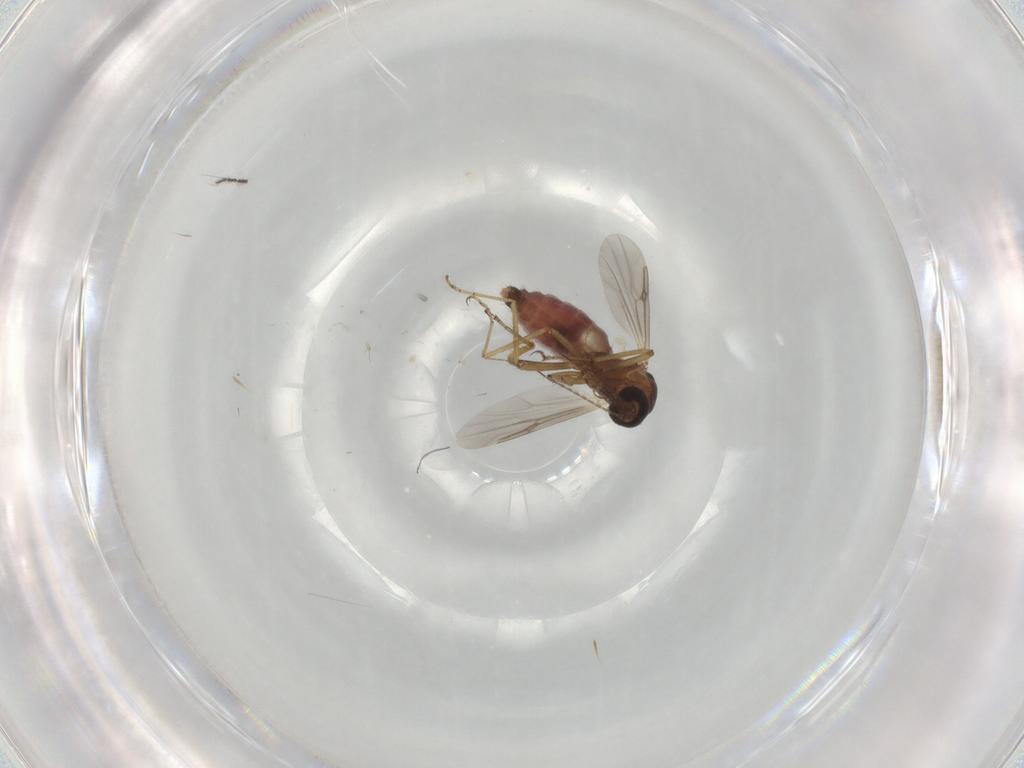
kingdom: Animalia
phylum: Arthropoda
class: Insecta
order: Diptera
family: Ceratopogonidae
